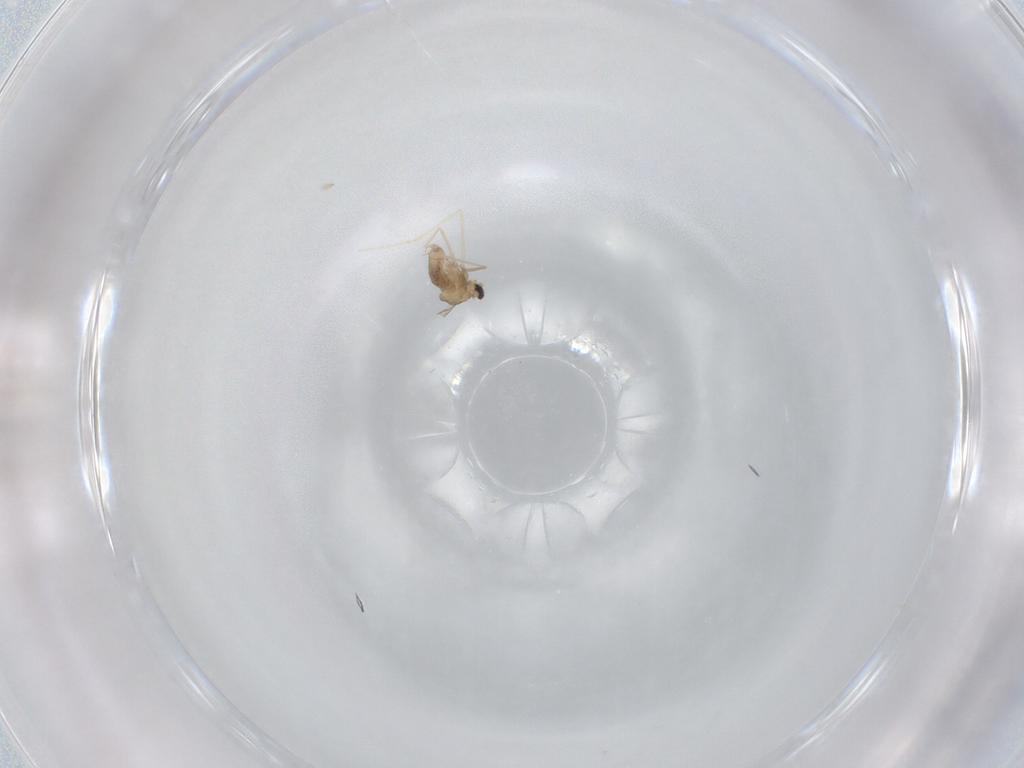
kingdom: Animalia
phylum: Arthropoda
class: Insecta
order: Diptera
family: Cecidomyiidae
